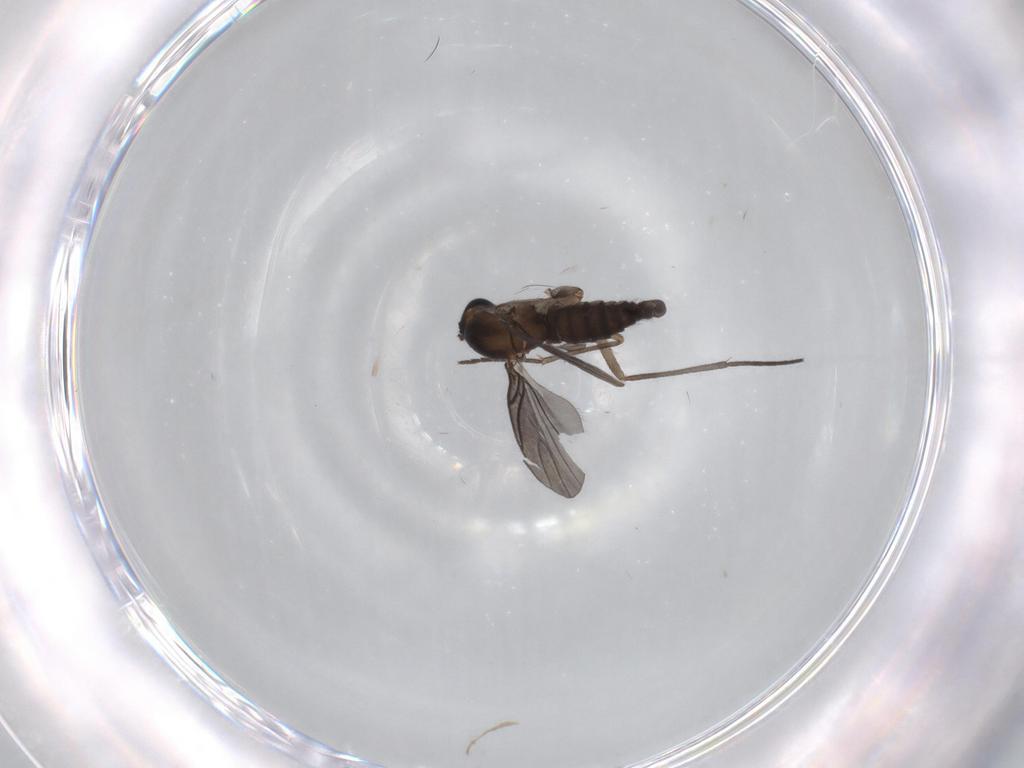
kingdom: Animalia
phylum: Arthropoda
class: Insecta
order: Diptera
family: Sciaridae
